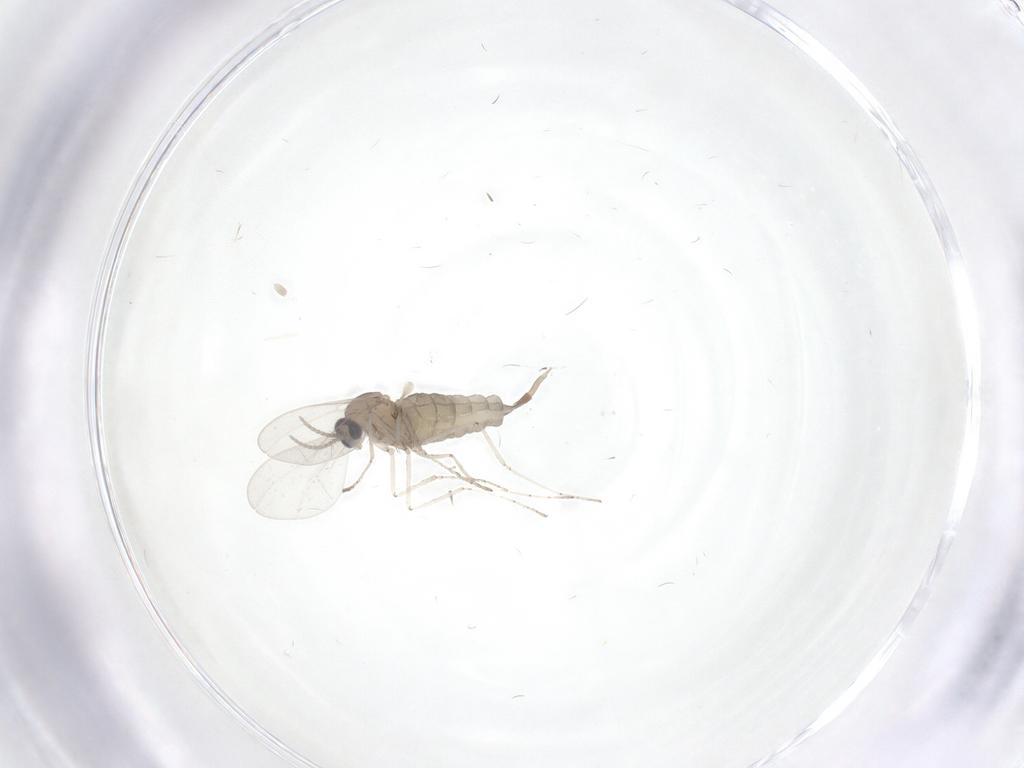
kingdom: Animalia
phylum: Arthropoda
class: Insecta
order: Diptera
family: Cecidomyiidae
